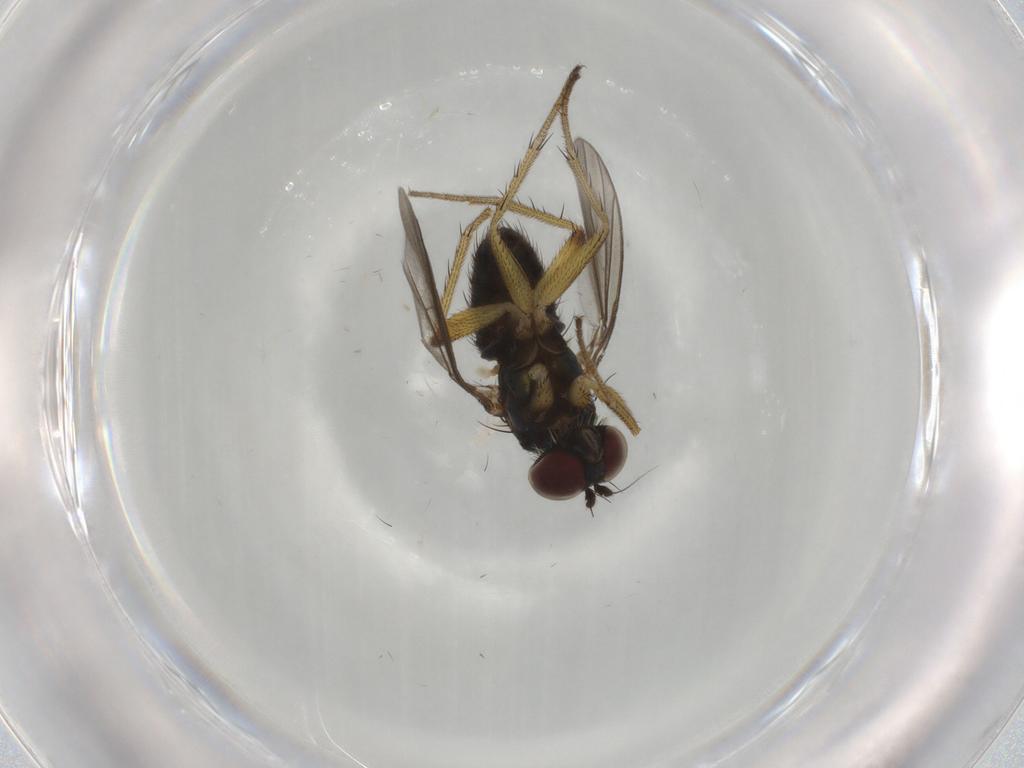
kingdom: Animalia
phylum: Arthropoda
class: Insecta
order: Diptera
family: Dolichopodidae
